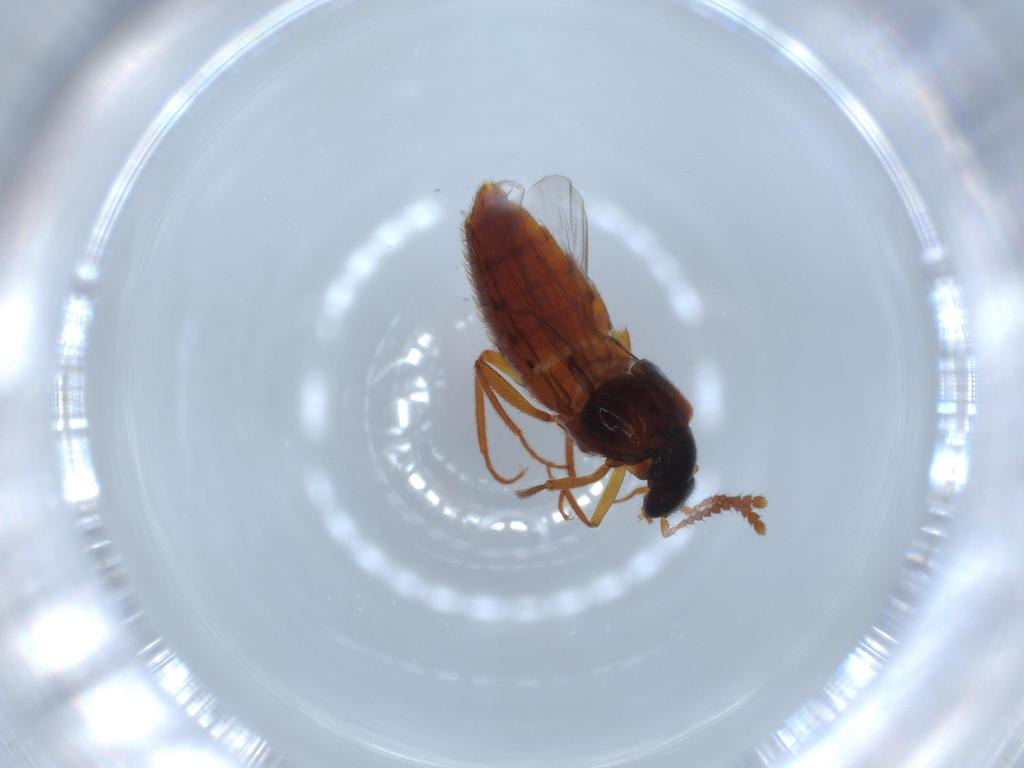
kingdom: Animalia
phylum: Arthropoda
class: Insecta
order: Coleoptera
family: Staphylinidae
